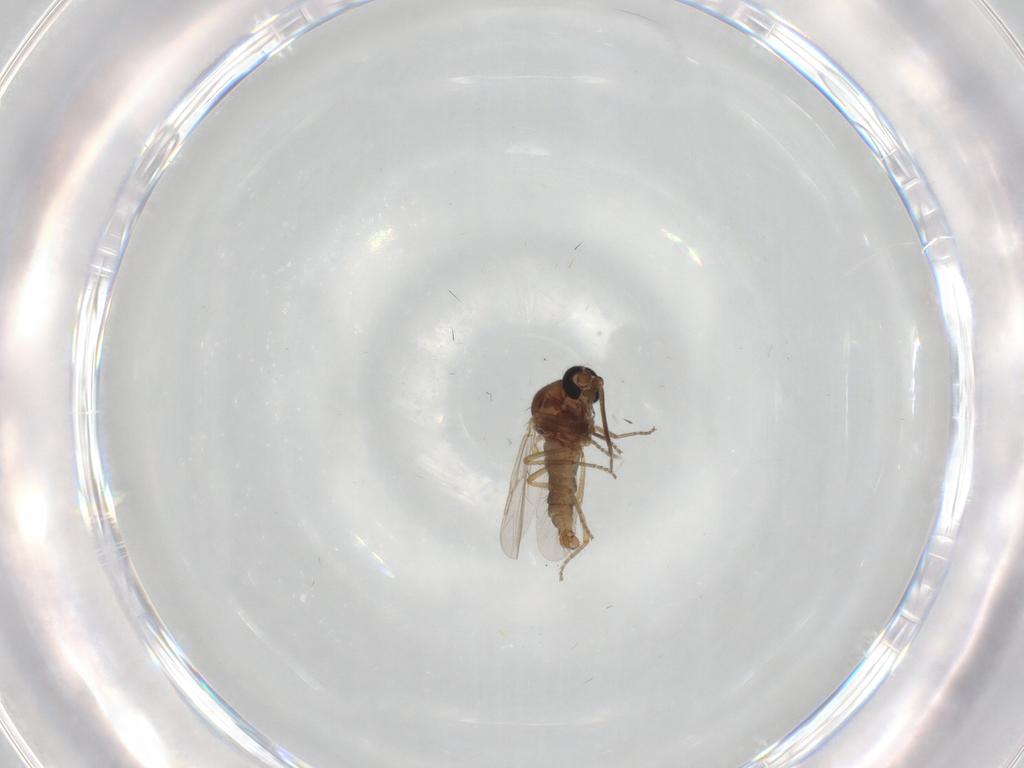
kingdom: Animalia
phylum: Arthropoda
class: Insecta
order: Diptera
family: Ceratopogonidae
